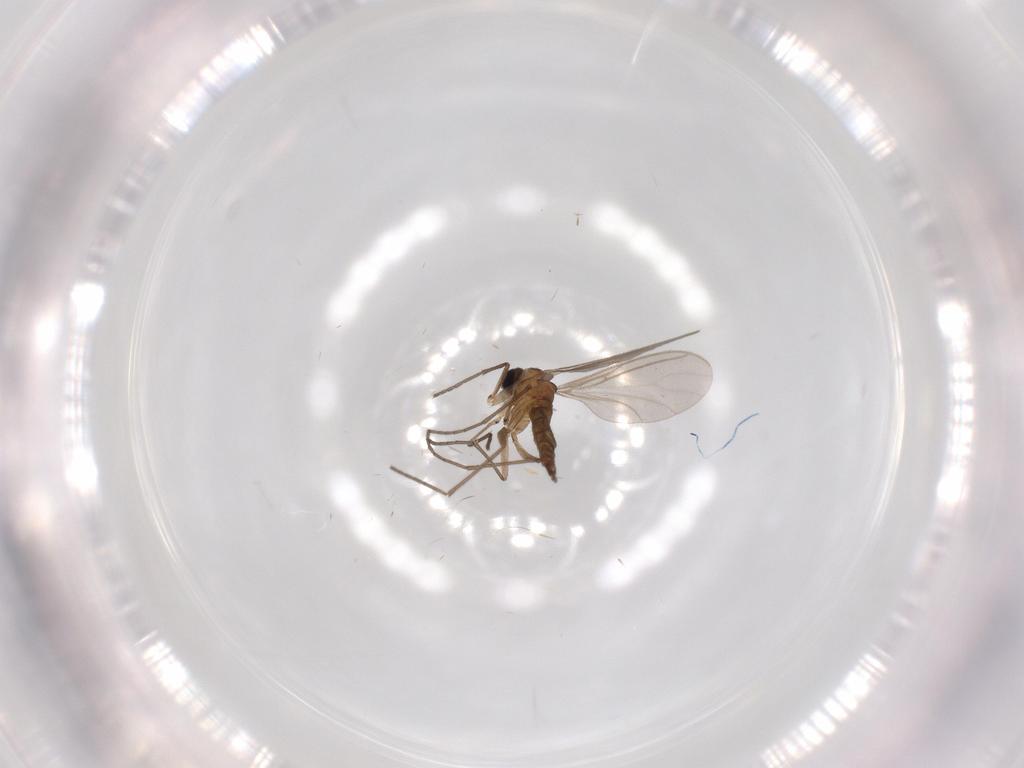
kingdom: Animalia
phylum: Arthropoda
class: Insecta
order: Diptera
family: Sciaridae
